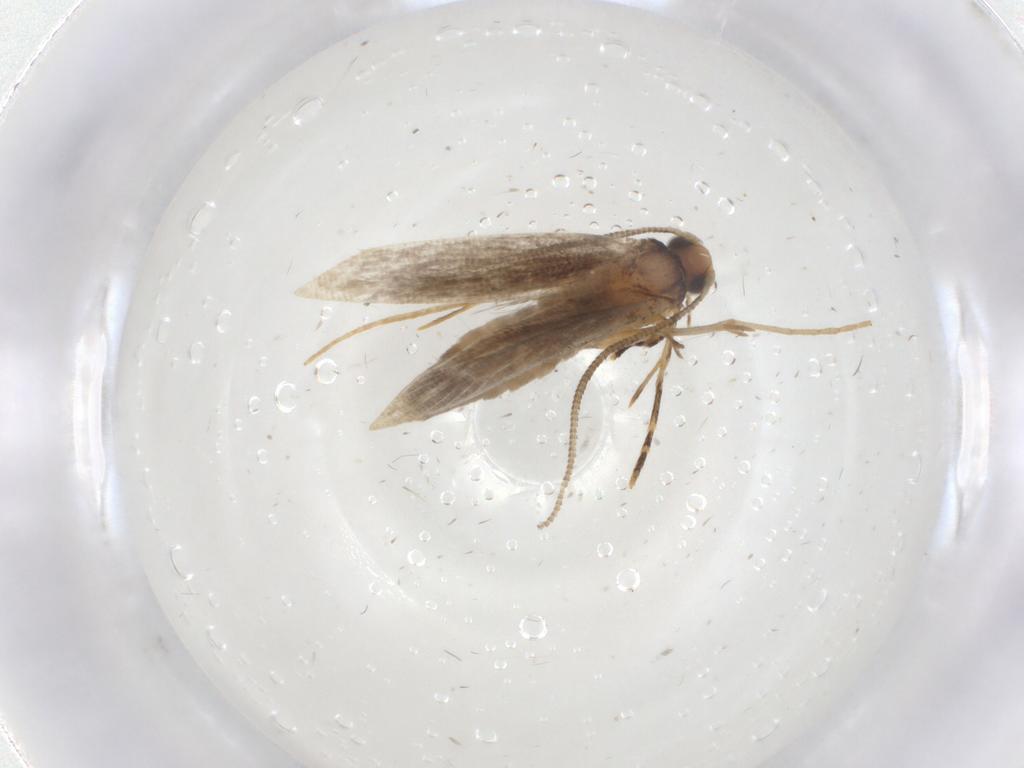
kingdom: Animalia
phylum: Arthropoda
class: Insecta
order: Lepidoptera
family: Tineidae
